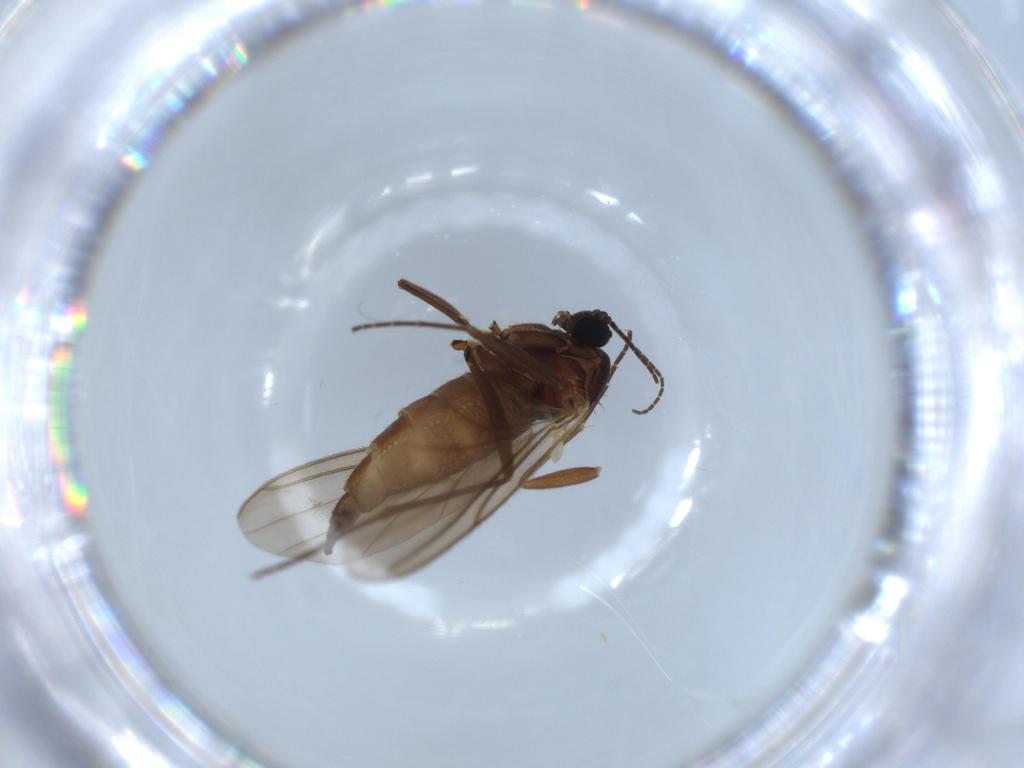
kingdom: Animalia
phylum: Arthropoda
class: Insecta
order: Diptera
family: Sciaridae
